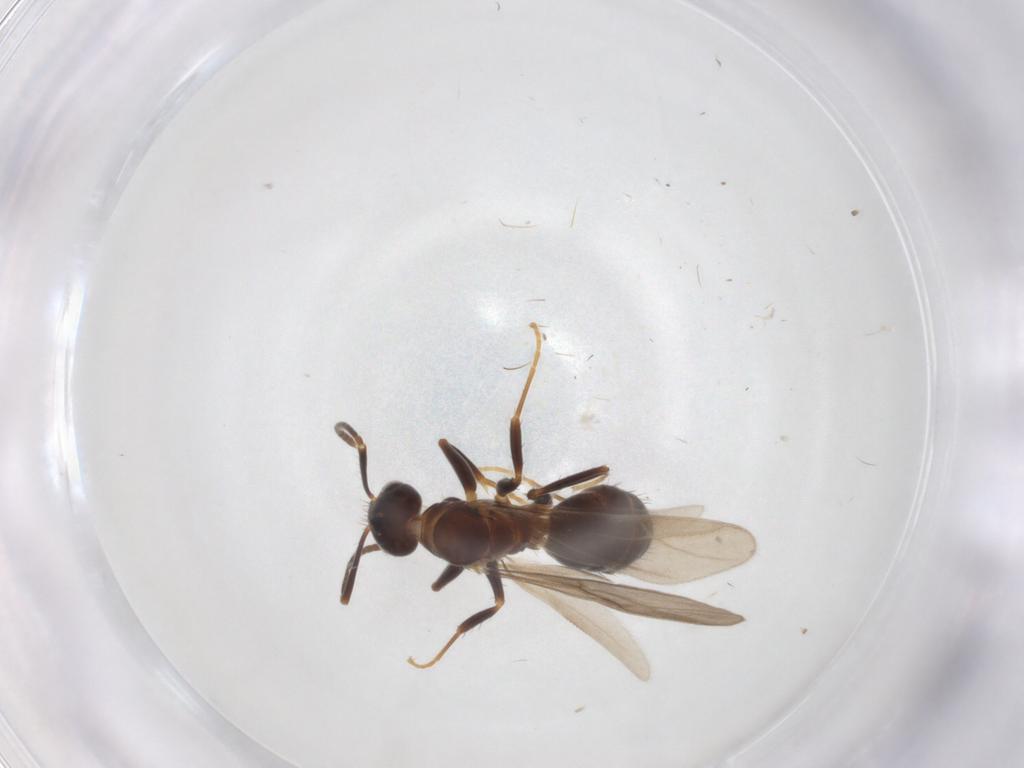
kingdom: Animalia
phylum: Arthropoda
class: Insecta
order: Hymenoptera
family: Formicidae
